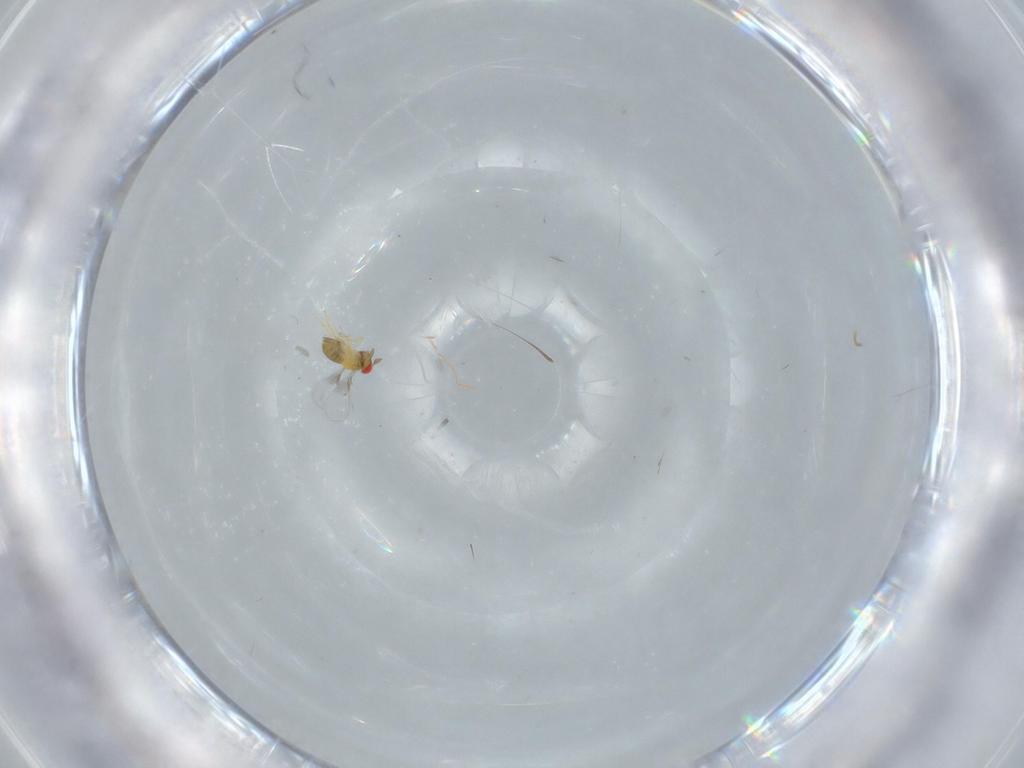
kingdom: Animalia
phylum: Arthropoda
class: Insecta
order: Hymenoptera
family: Trichogrammatidae
